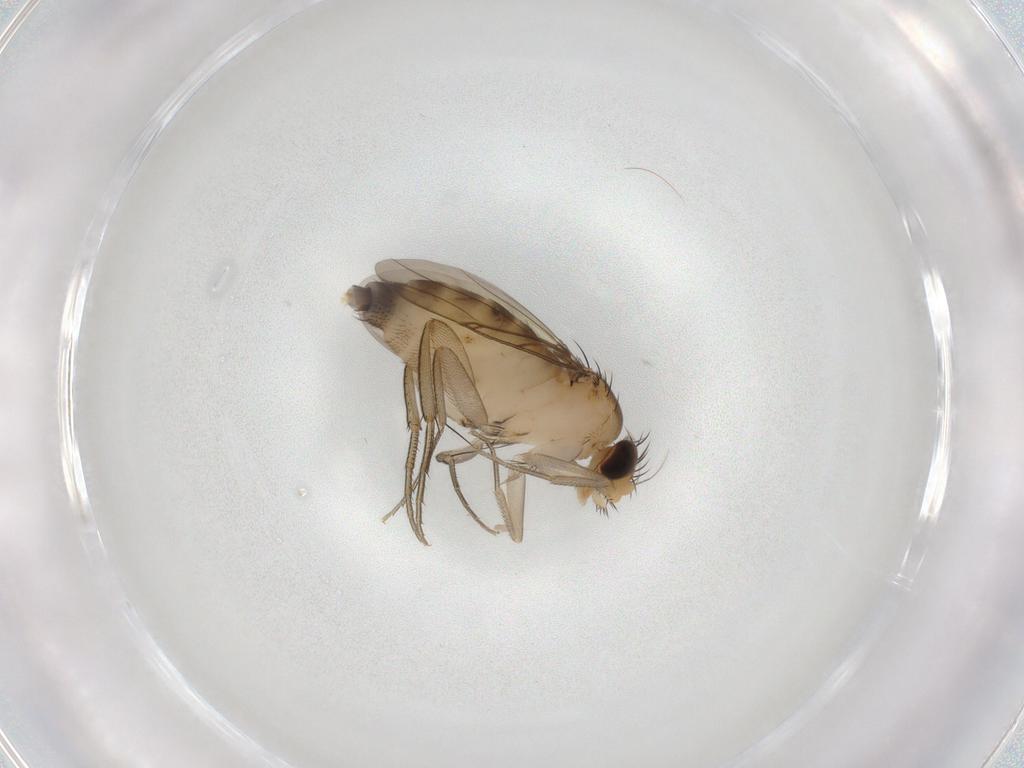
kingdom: Animalia
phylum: Arthropoda
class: Insecta
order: Diptera
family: Phoridae
